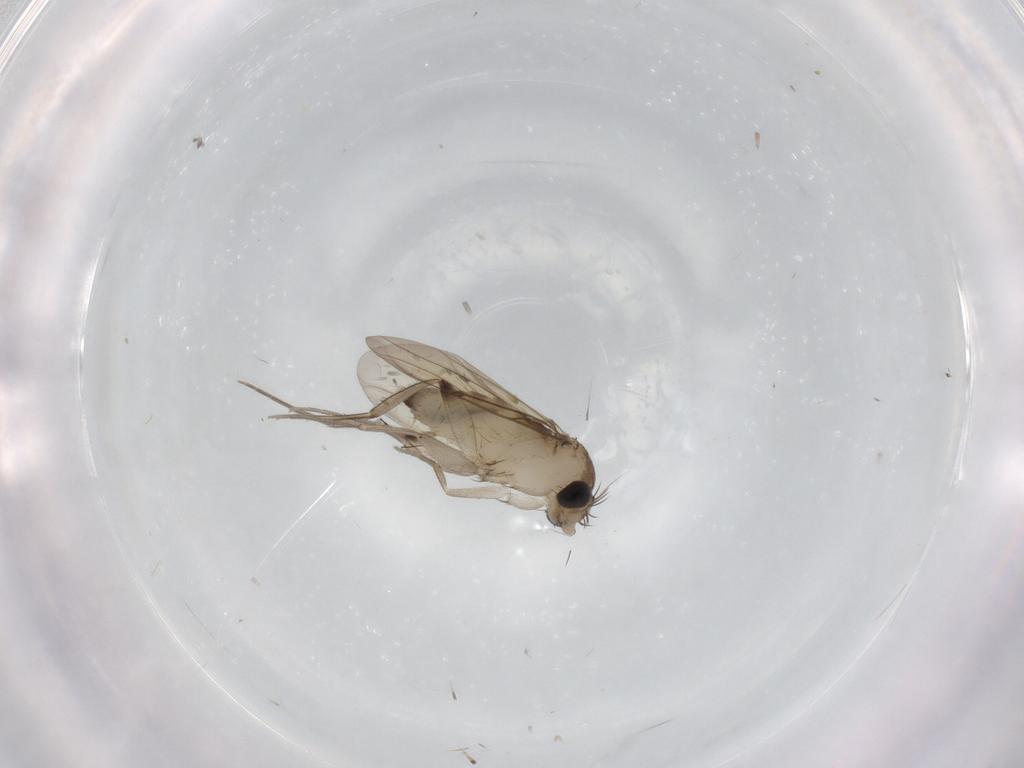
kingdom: Animalia
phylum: Arthropoda
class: Insecta
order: Diptera
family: Phoridae
